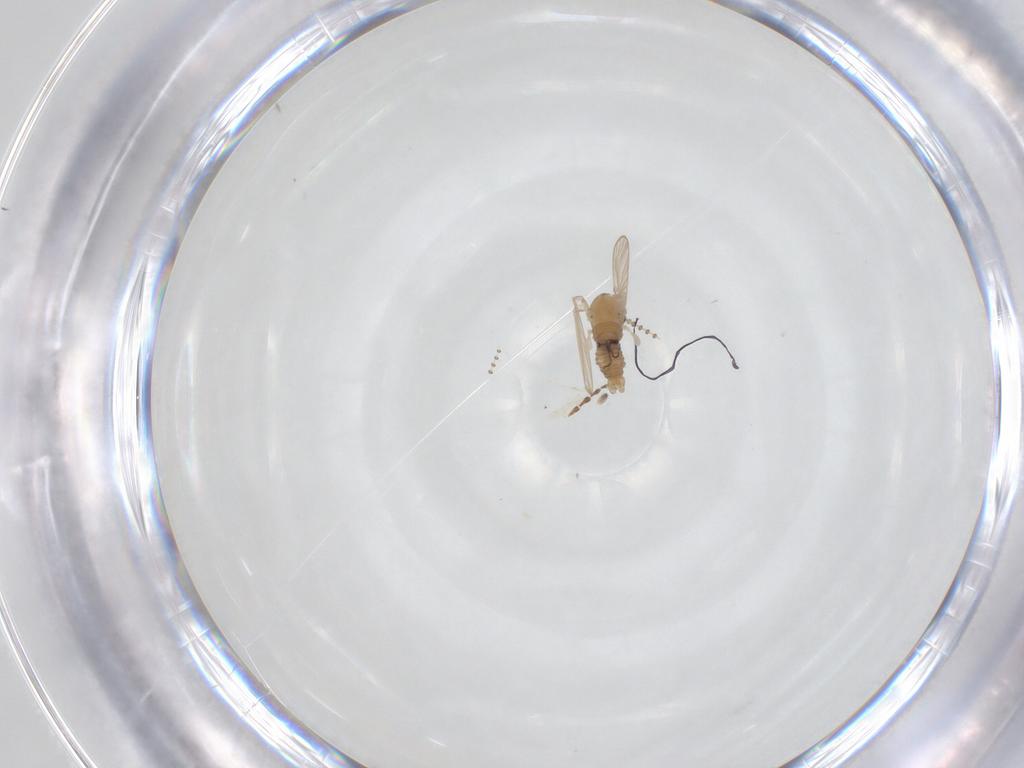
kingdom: Animalia
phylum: Arthropoda
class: Insecta
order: Diptera
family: Psychodidae
